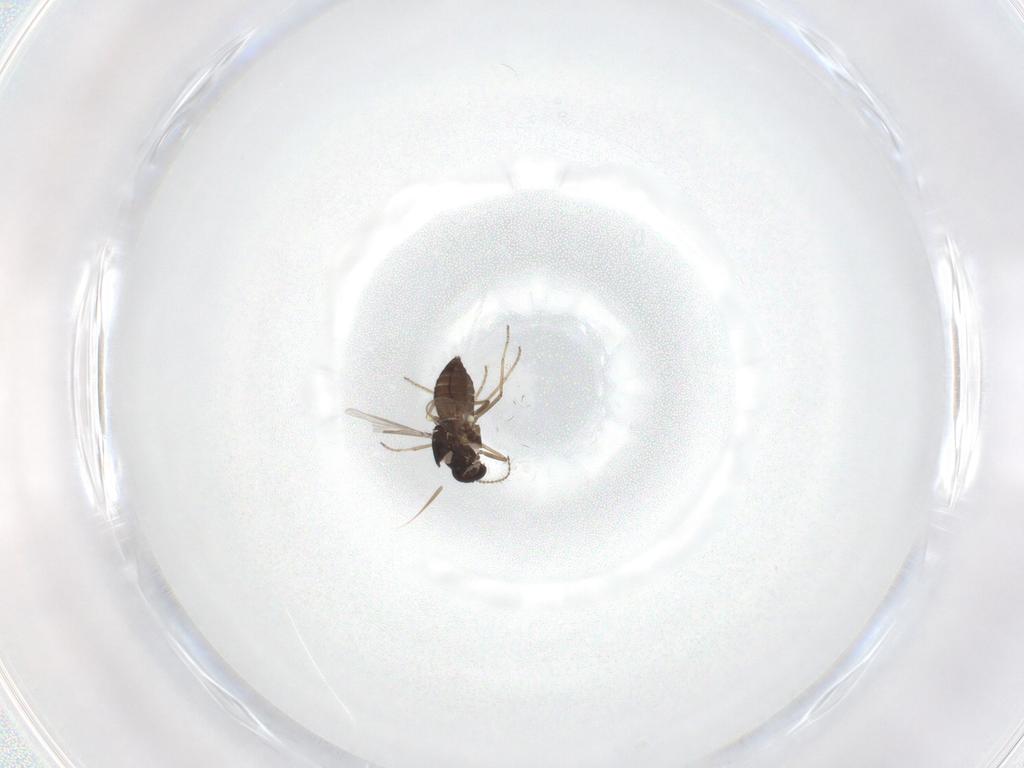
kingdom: Animalia
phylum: Arthropoda
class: Insecta
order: Diptera
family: Ceratopogonidae
